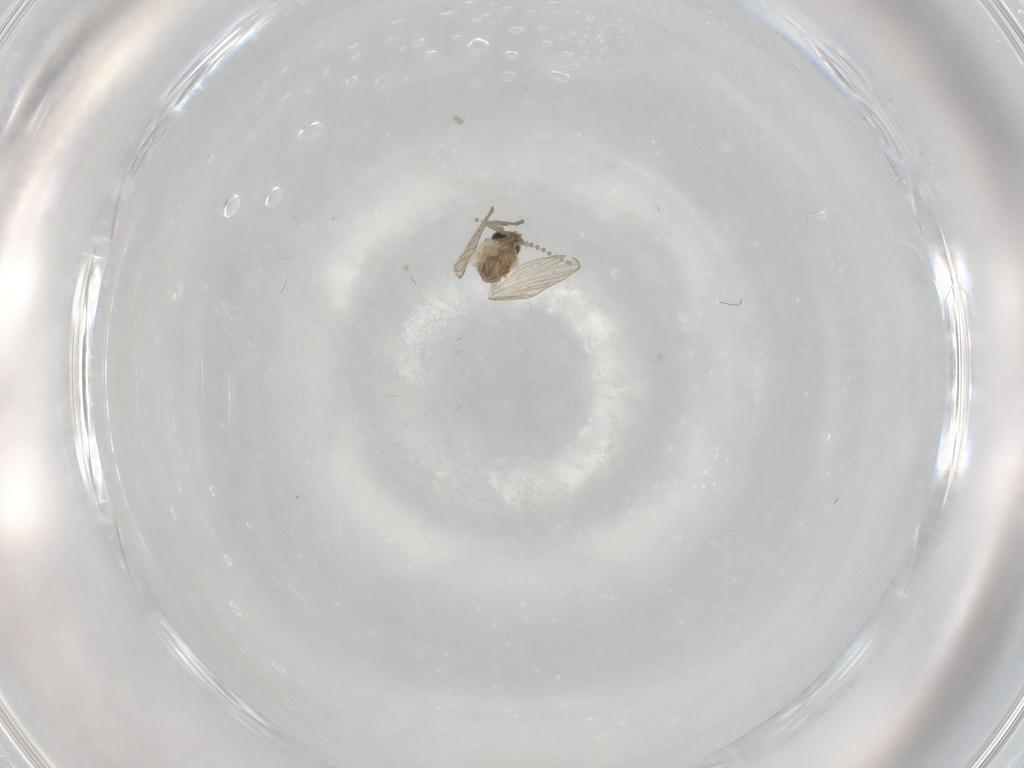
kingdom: Animalia
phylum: Arthropoda
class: Insecta
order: Diptera
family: Psychodidae
